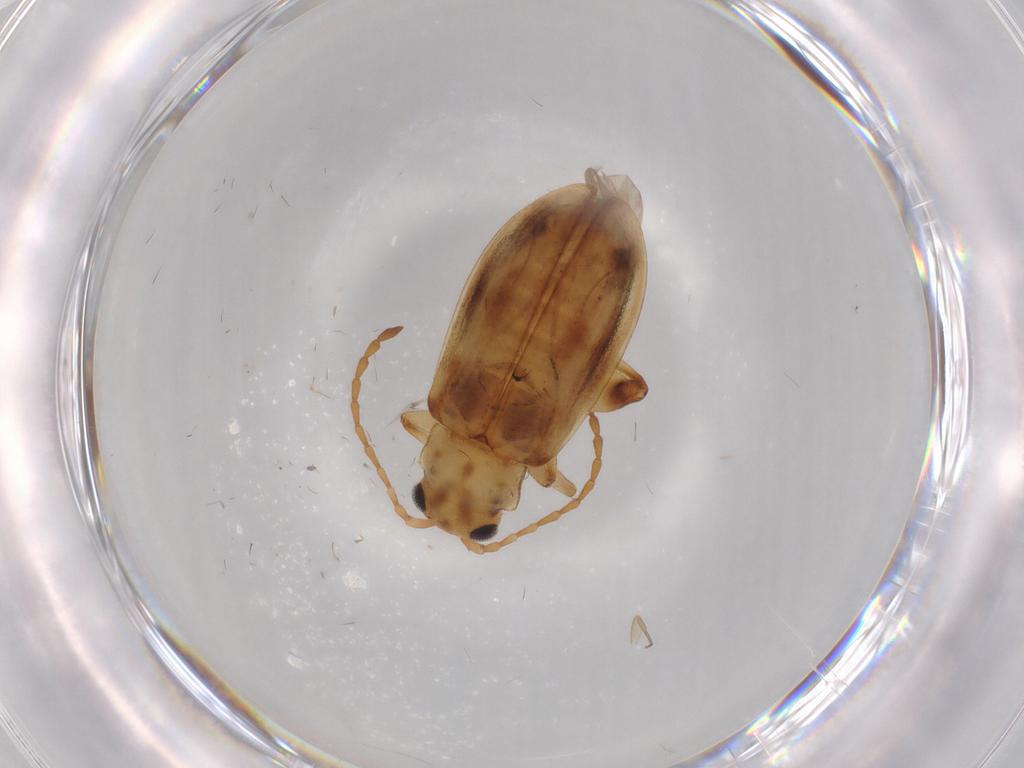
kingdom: Animalia
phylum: Arthropoda
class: Insecta
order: Coleoptera
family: Chrysomelidae
